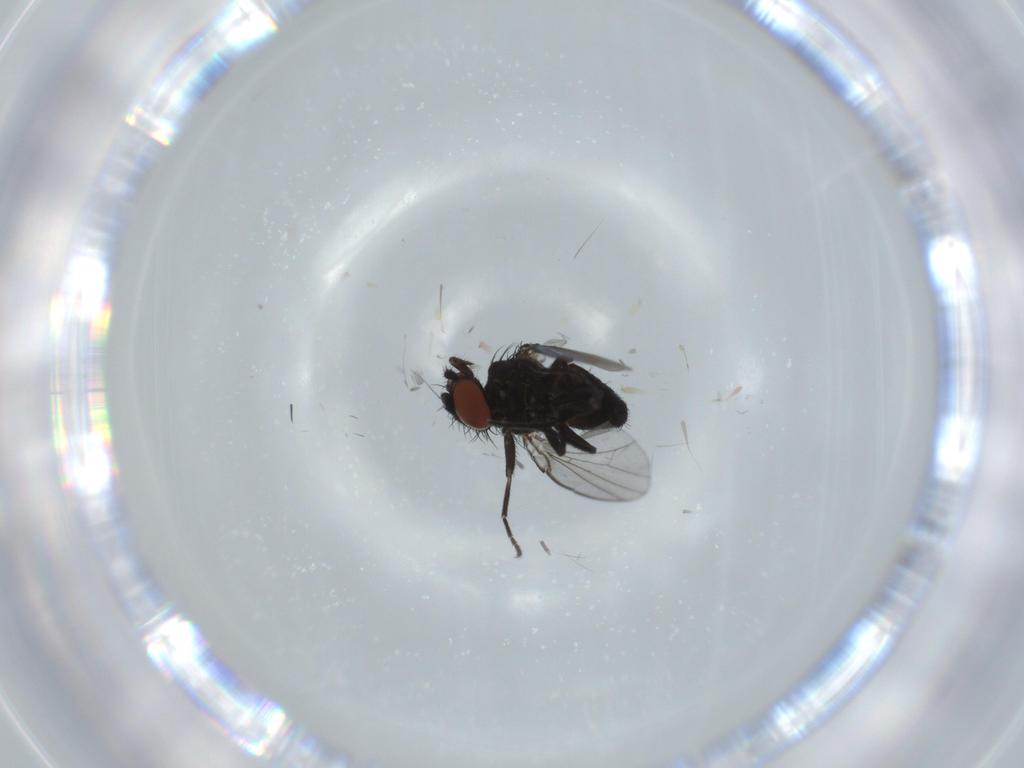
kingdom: Animalia
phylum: Arthropoda
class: Insecta
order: Diptera
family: Milichiidae
